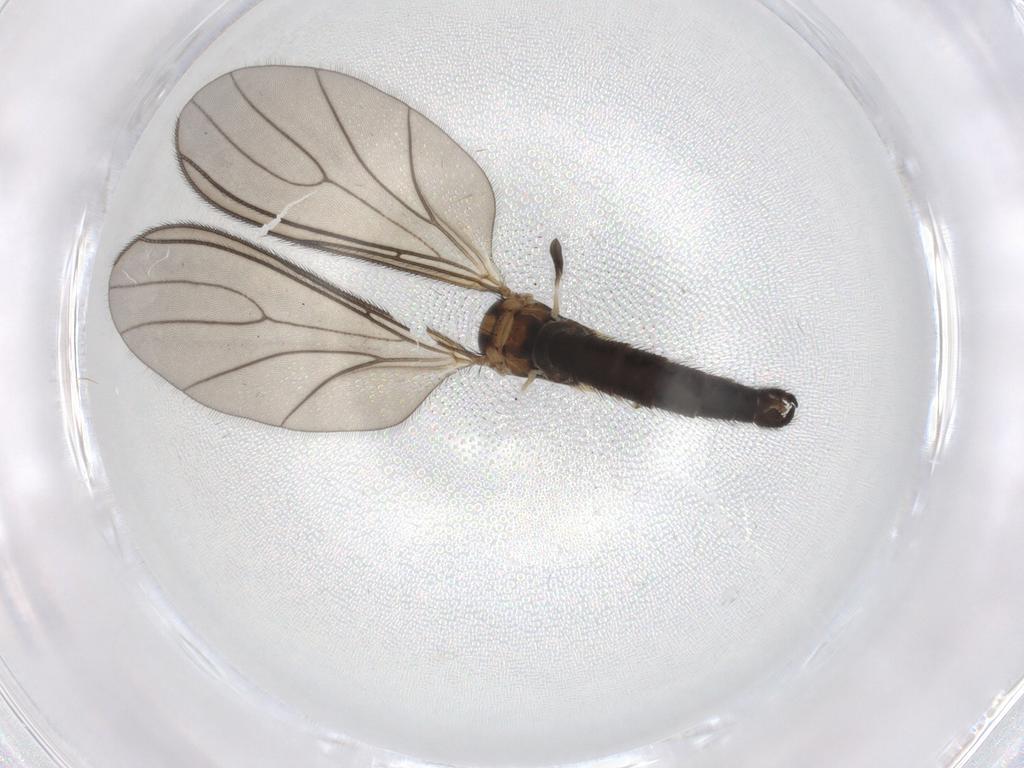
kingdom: Animalia
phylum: Arthropoda
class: Insecta
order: Diptera
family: Sciaridae
